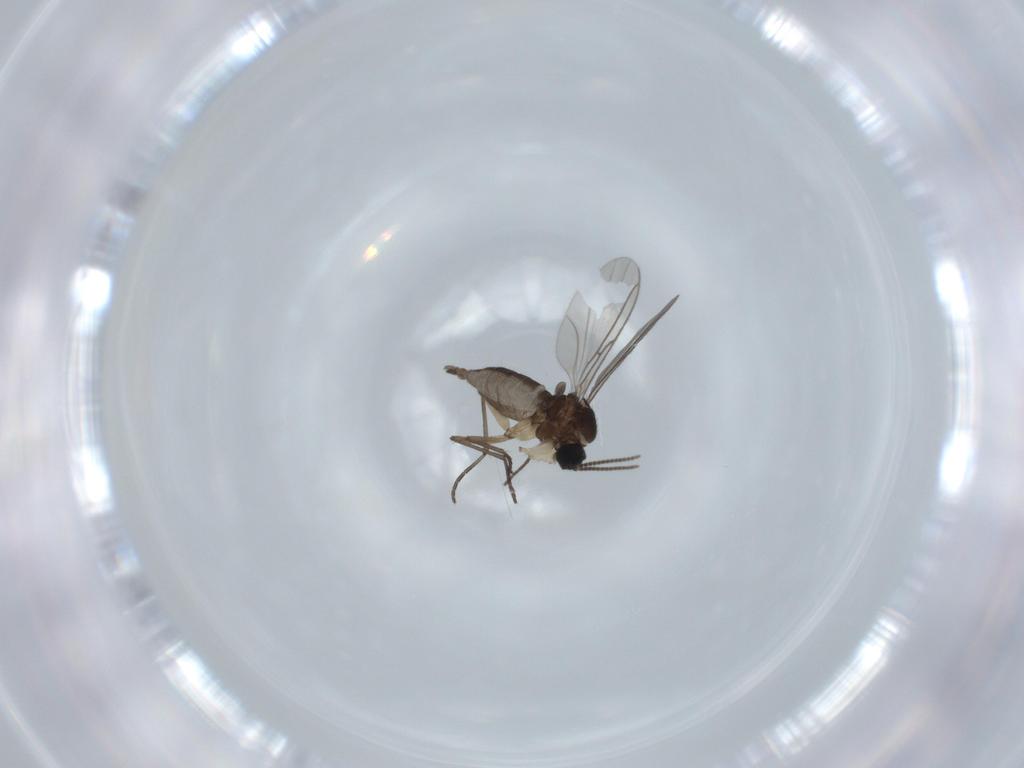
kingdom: Animalia
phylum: Arthropoda
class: Insecta
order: Diptera
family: Sciaridae
